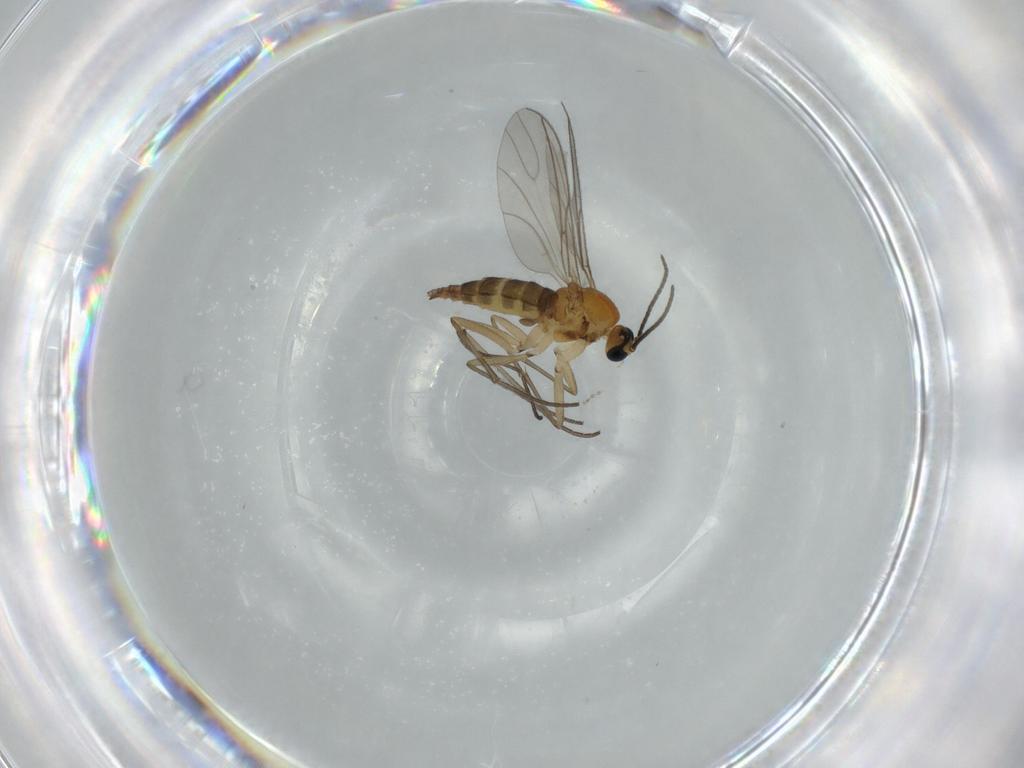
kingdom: Animalia
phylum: Arthropoda
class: Insecta
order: Diptera
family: Cecidomyiidae
